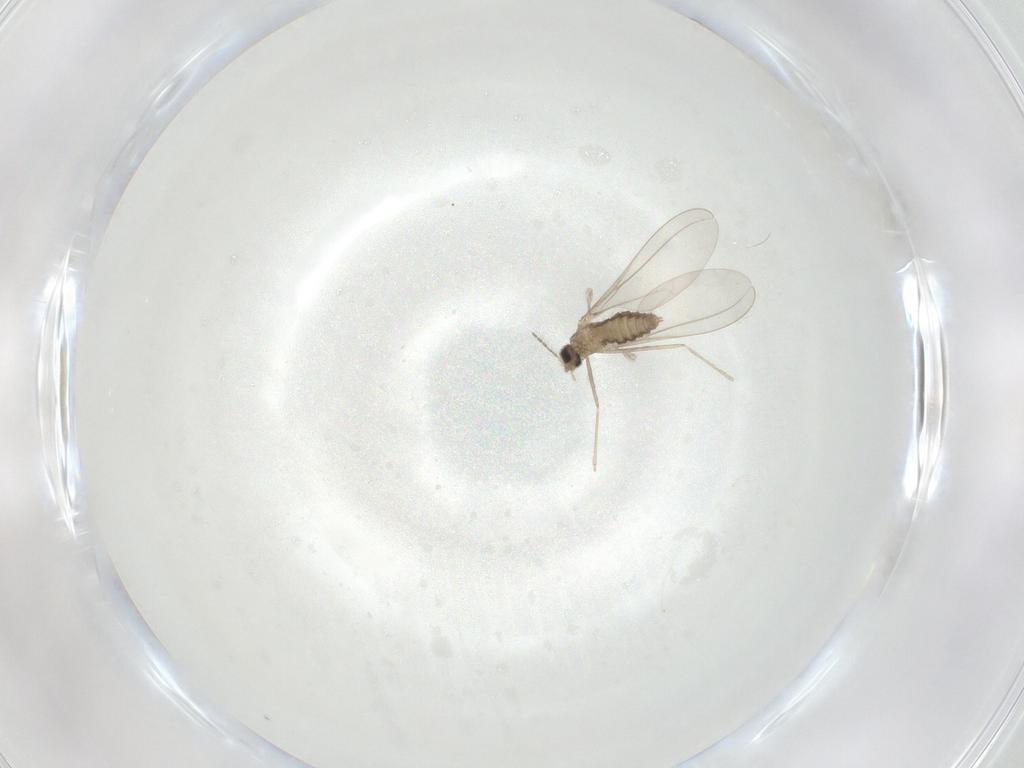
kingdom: Animalia
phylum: Arthropoda
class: Insecta
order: Diptera
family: Cecidomyiidae
